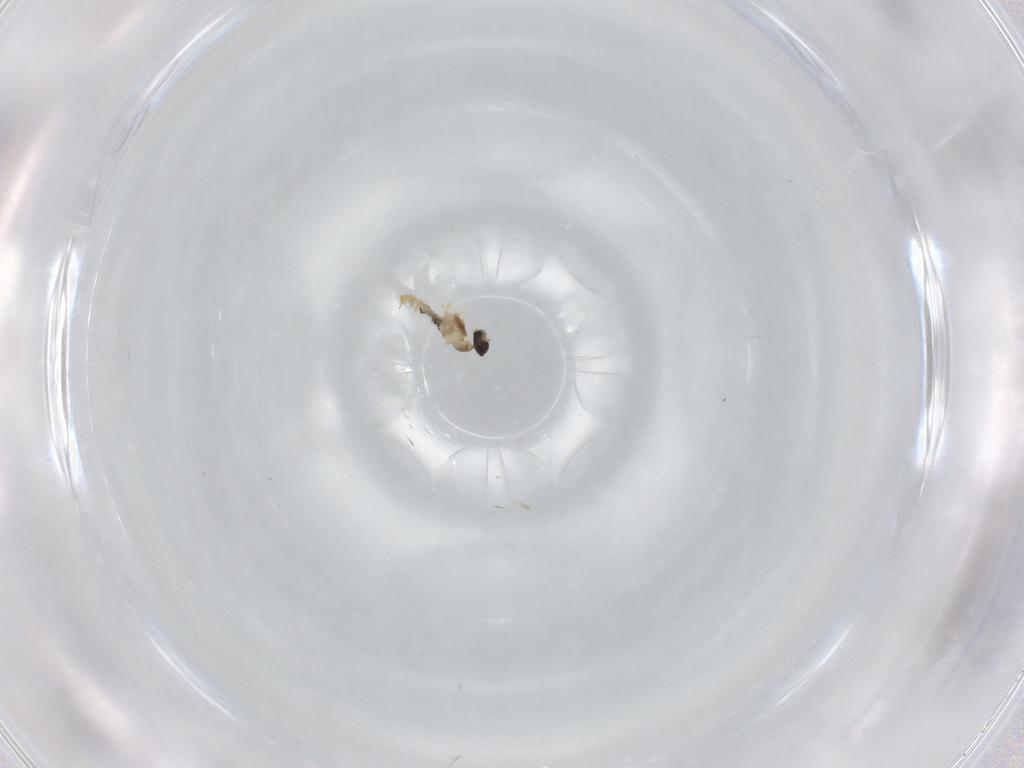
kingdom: Animalia
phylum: Arthropoda
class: Insecta
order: Diptera
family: Cecidomyiidae
